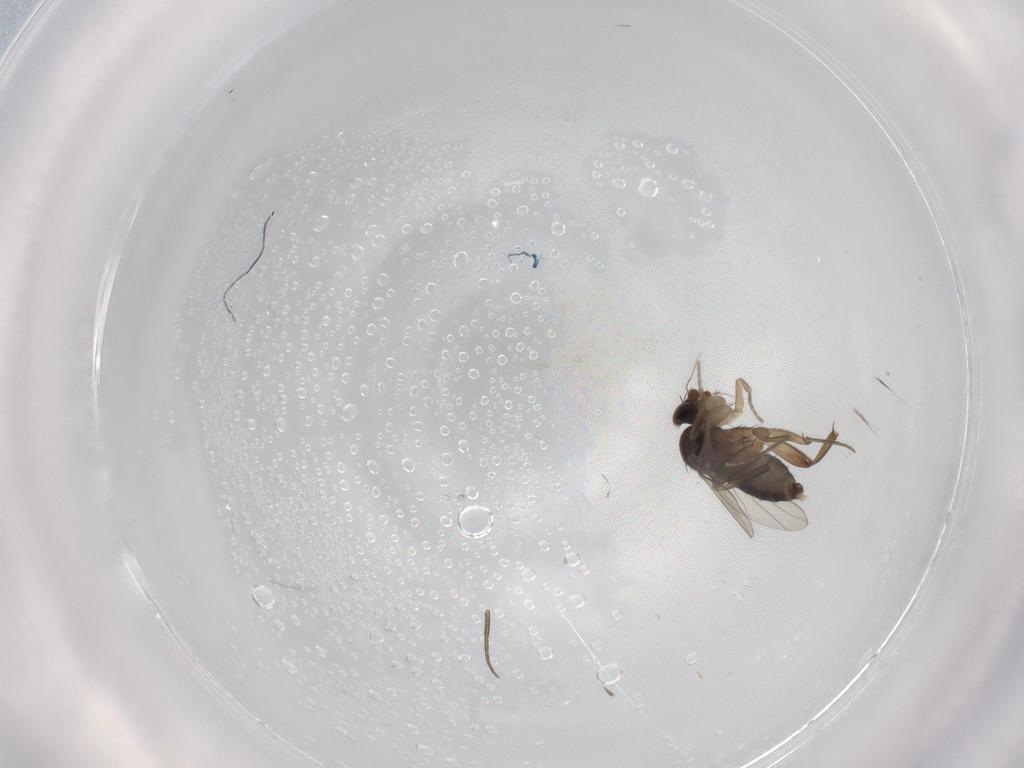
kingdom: Animalia
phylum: Arthropoda
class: Insecta
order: Diptera
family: Phoridae
